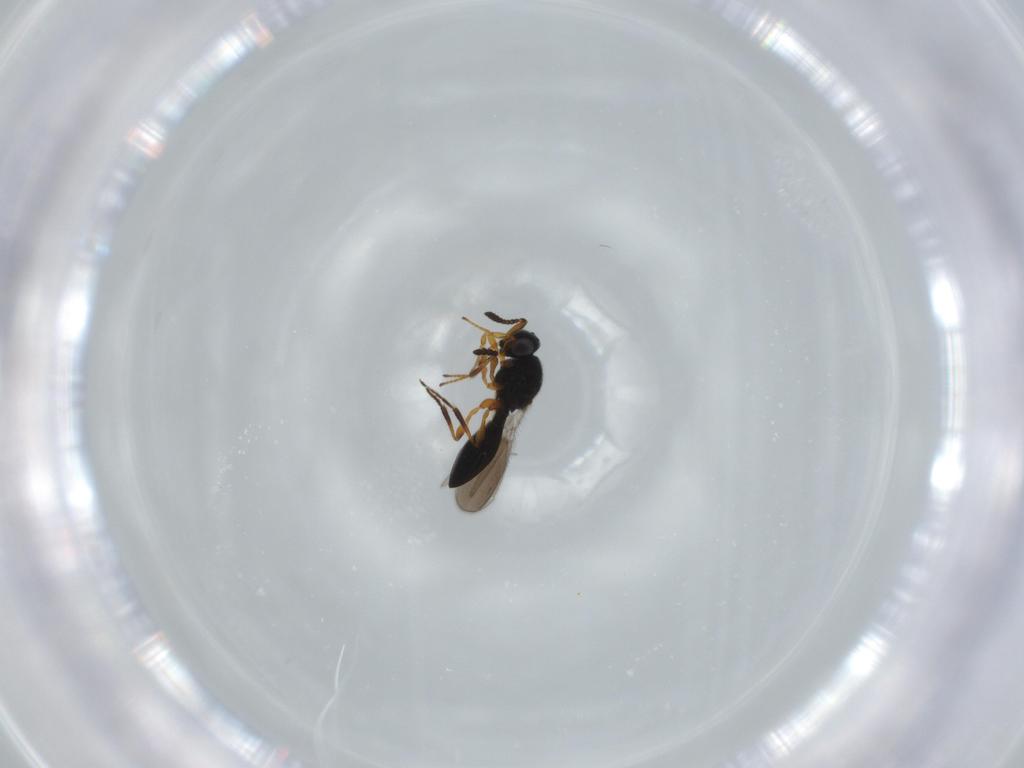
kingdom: Animalia
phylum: Arthropoda
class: Insecta
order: Hymenoptera
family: Platygastridae
